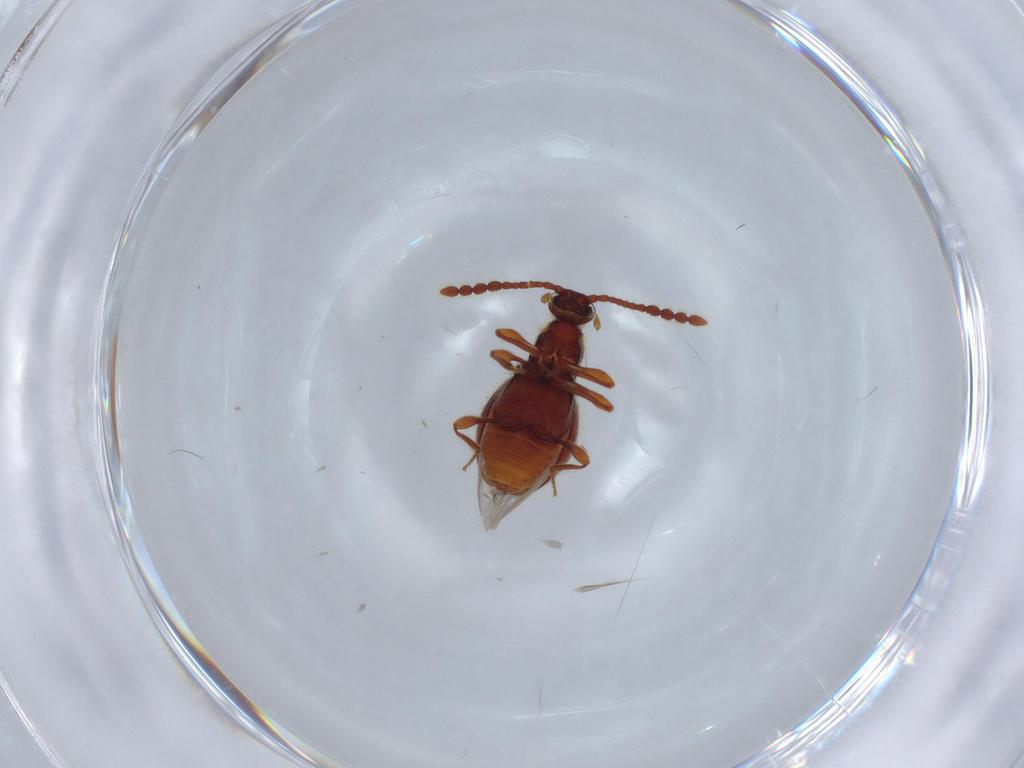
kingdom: Animalia
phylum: Arthropoda
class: Insecta
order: Coleoptera
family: Staphylinidae
